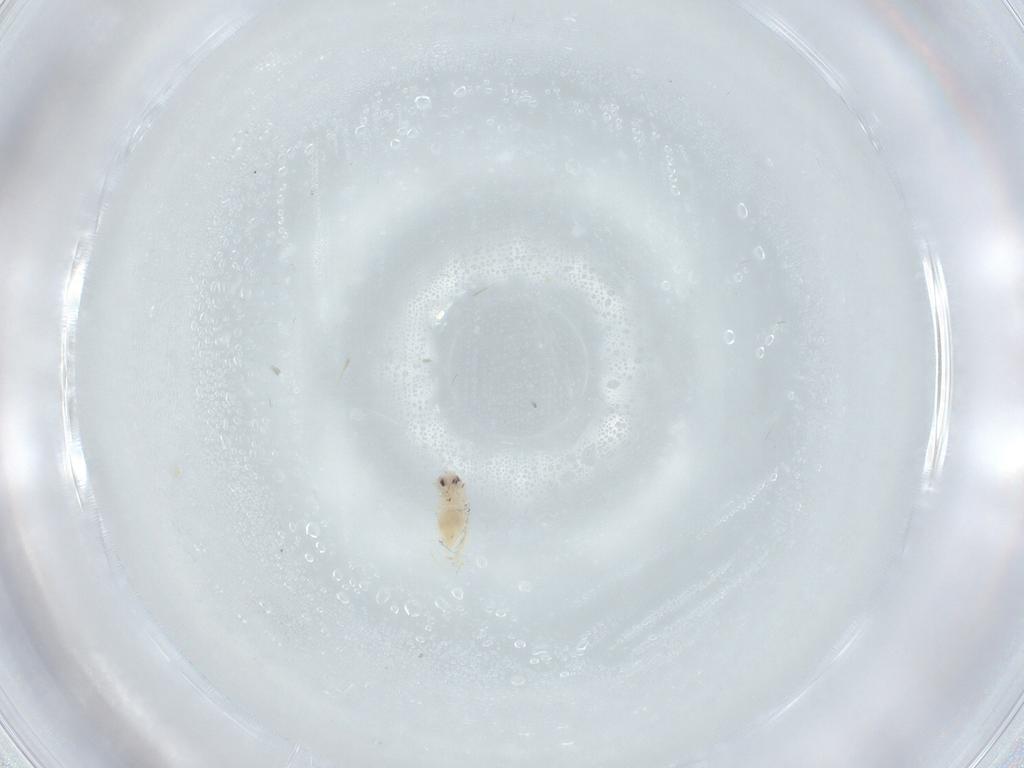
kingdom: Animalia
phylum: Arthropoda
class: Insecta
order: Hemiptera
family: Aleyrodidae
